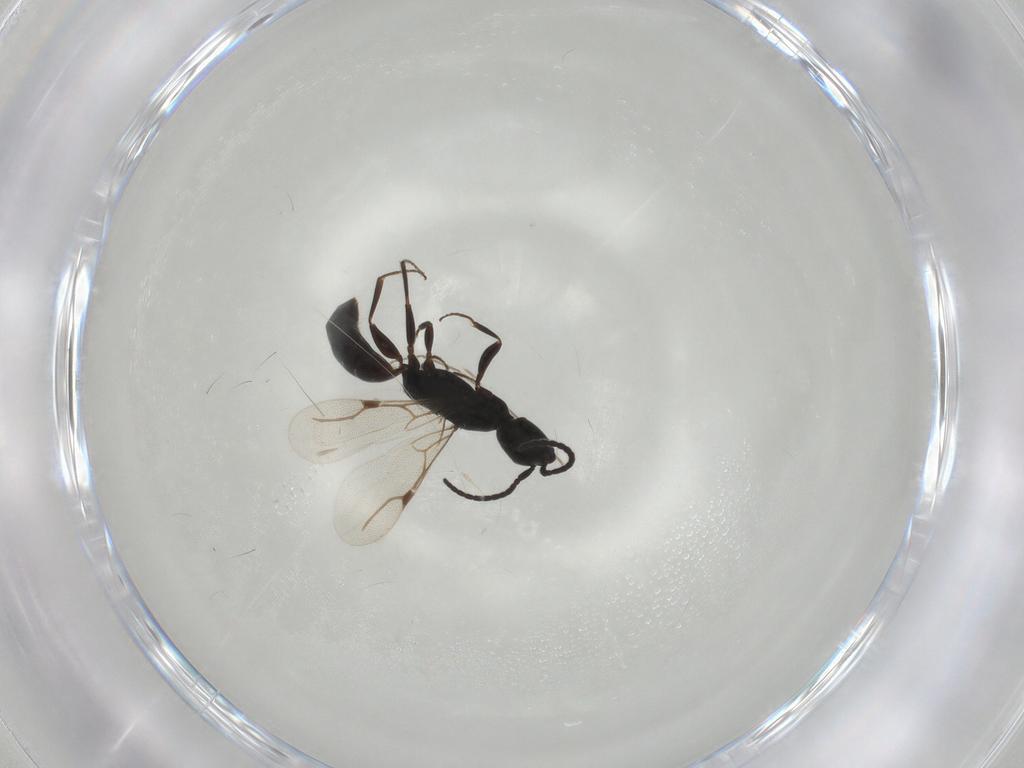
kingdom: Animalia
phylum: Arthropoda
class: Insecta
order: Hymenoptera
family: Bethylidae
